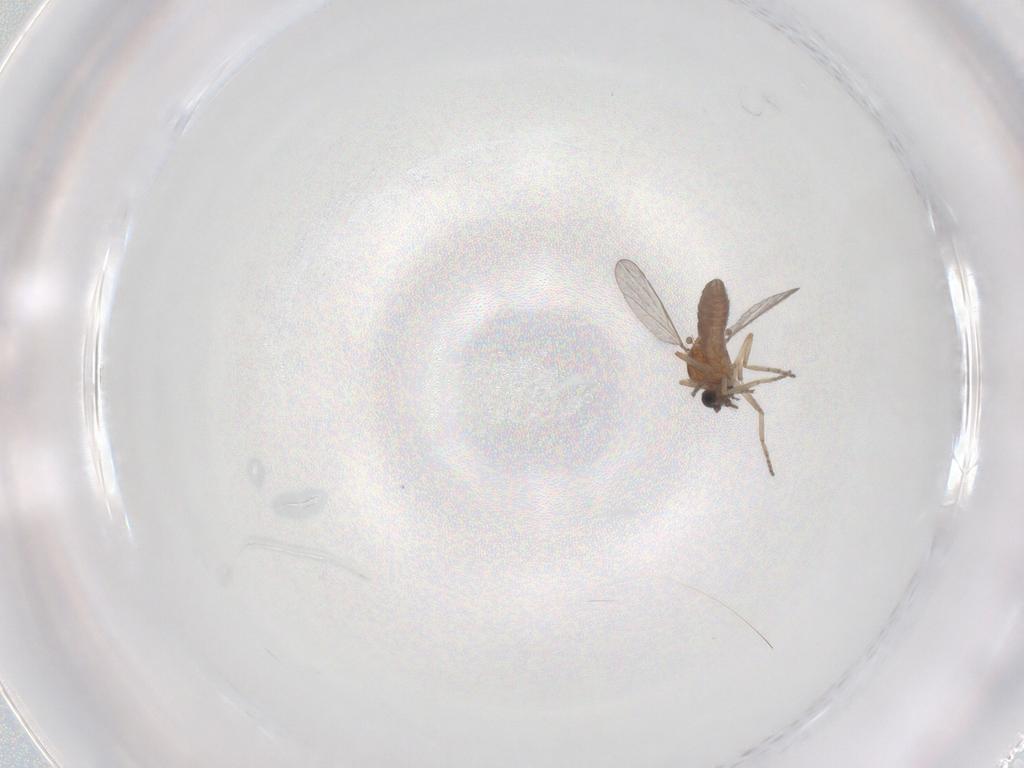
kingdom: Animalia
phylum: Arthropoda
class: Insecta
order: Diptera
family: Ceratopogonidae
